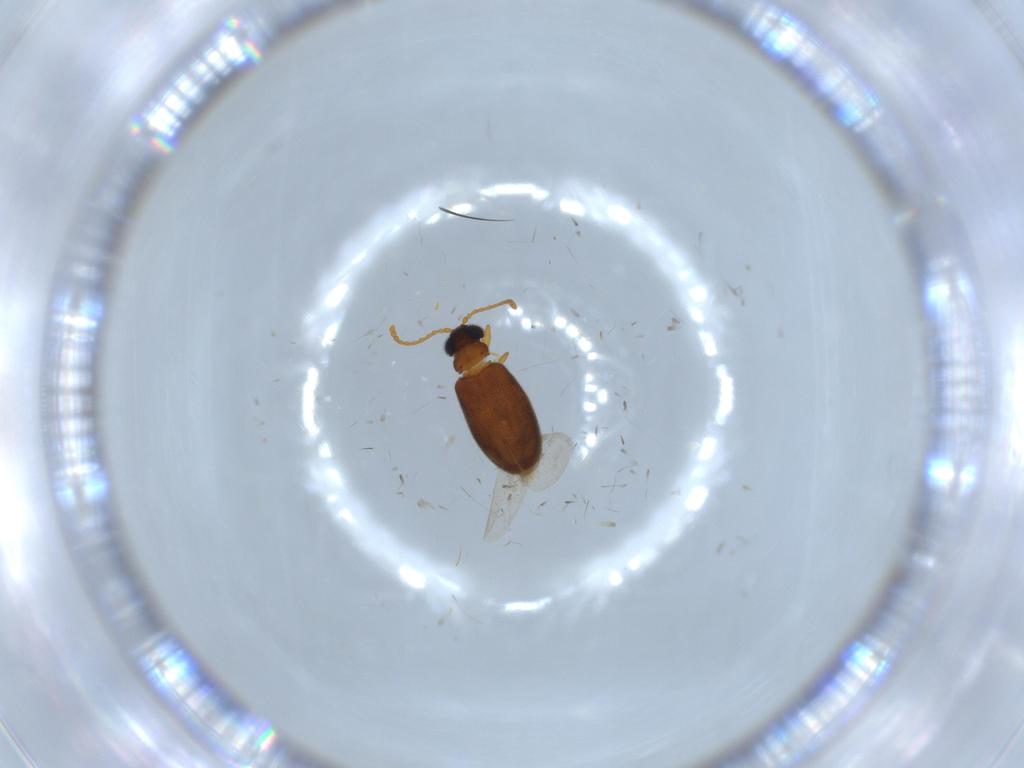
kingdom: Animalia
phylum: Arthropoda
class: Insecta
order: Coleoptera
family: Aderidae
